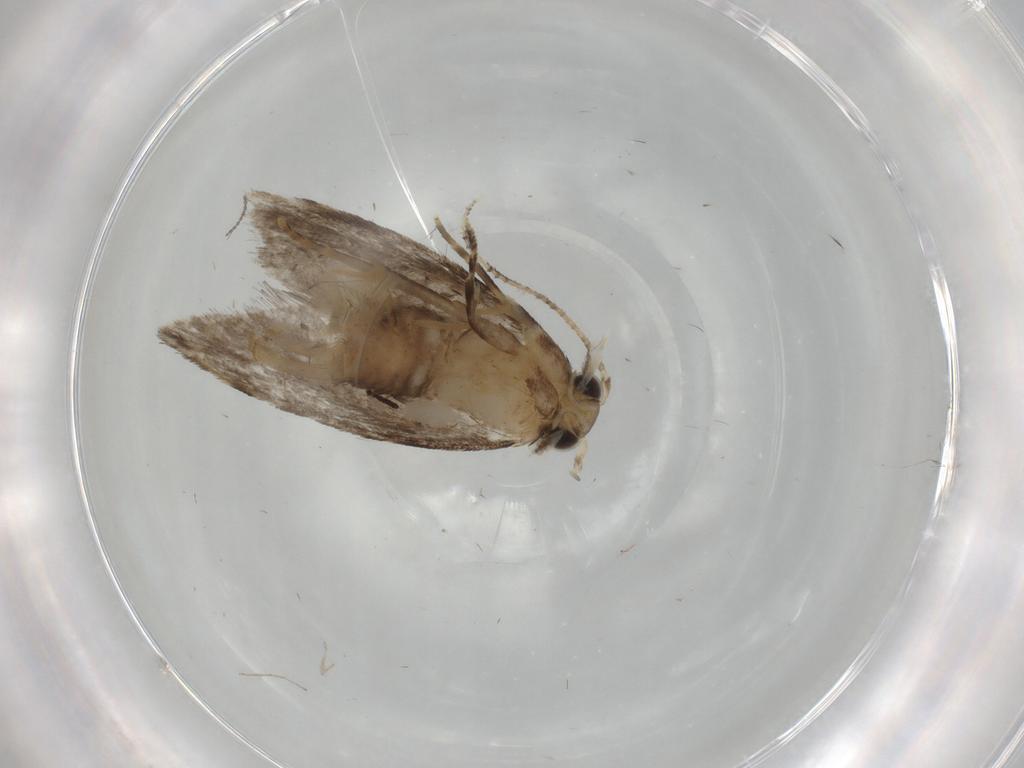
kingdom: Animalia
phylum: Arthropoda
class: Insecta
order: Lepidoptera
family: Tineidae
